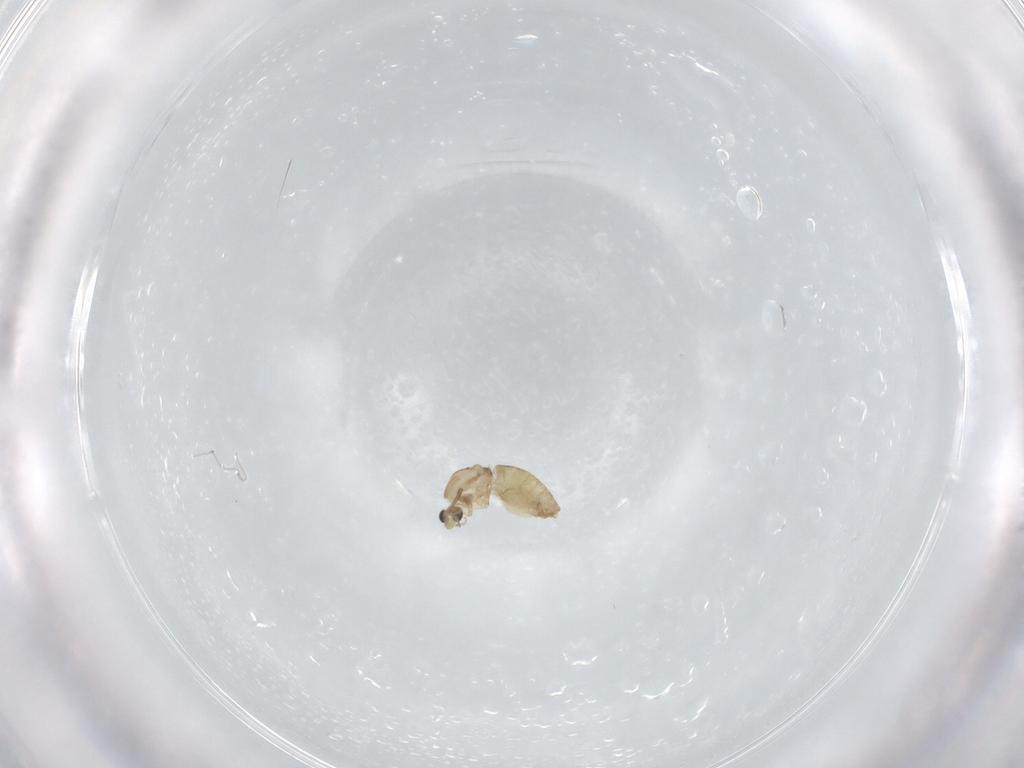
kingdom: Animalia
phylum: Arthropoda
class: Insecta
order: Diptera
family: Chironomidae
